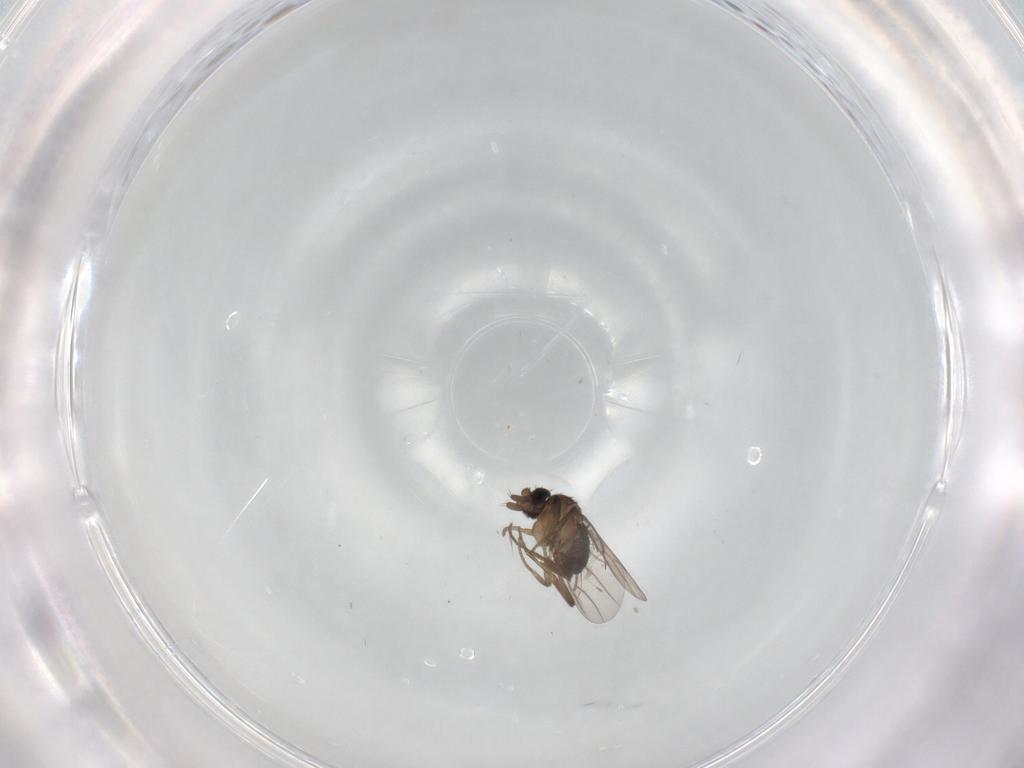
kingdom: Animalia
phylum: Arthropoda
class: Insecta
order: Diptera
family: Phoridae
